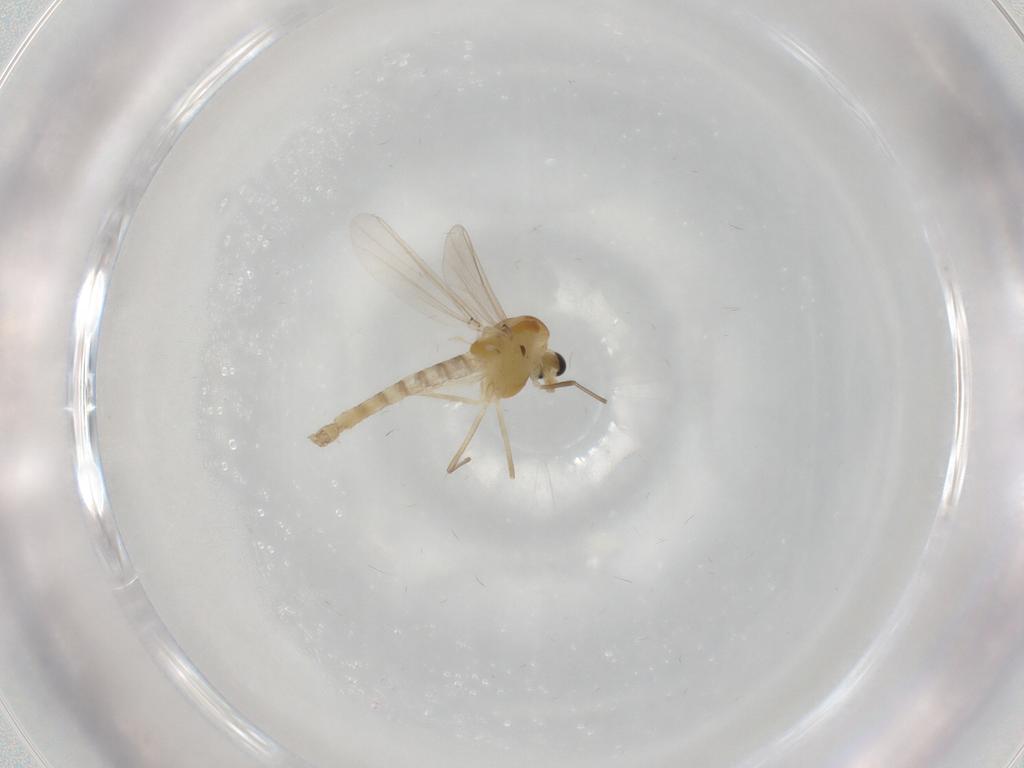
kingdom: Animalia
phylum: Arthropoda
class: Insecta
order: Diptera
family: Chironomidae
